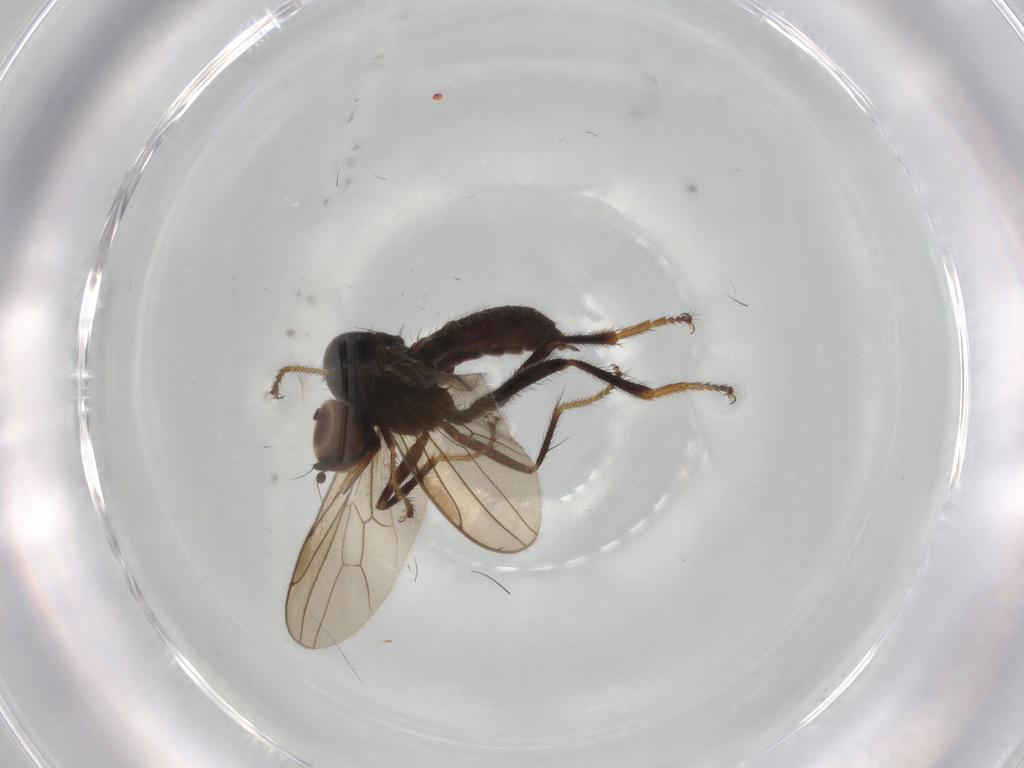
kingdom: Animalia
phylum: Arthropoda
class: Insecta
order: Diptera
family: Hybotidae
